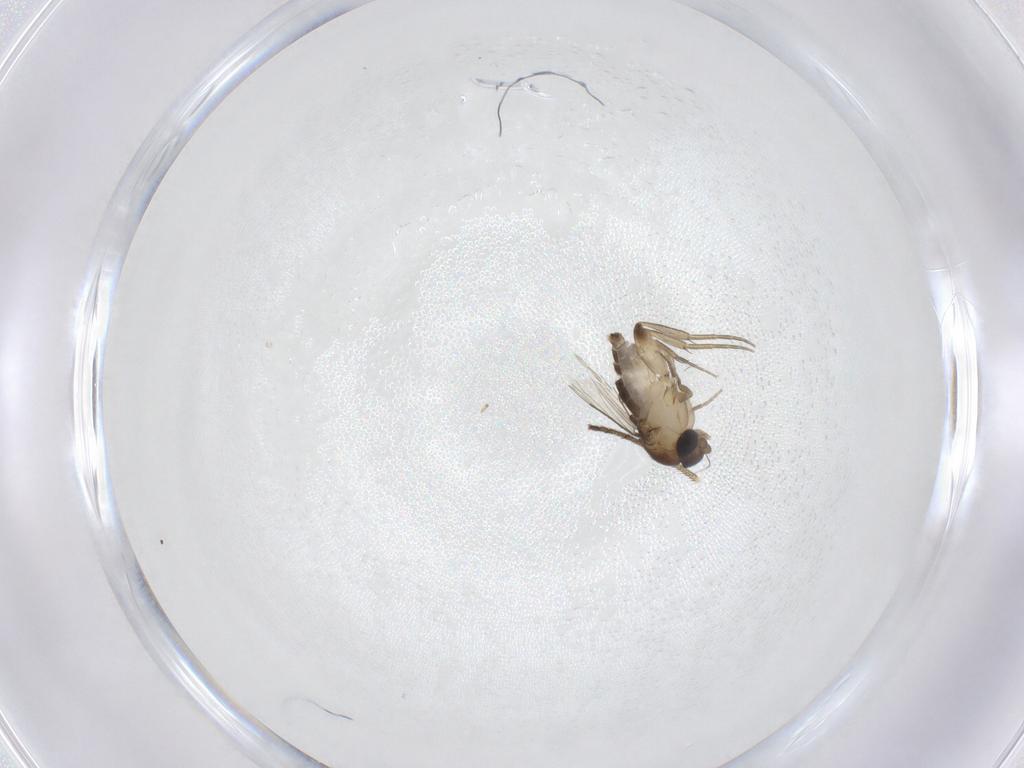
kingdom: Animalia
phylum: Arthropoda
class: Insecta
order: Diptera
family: Phoridae
